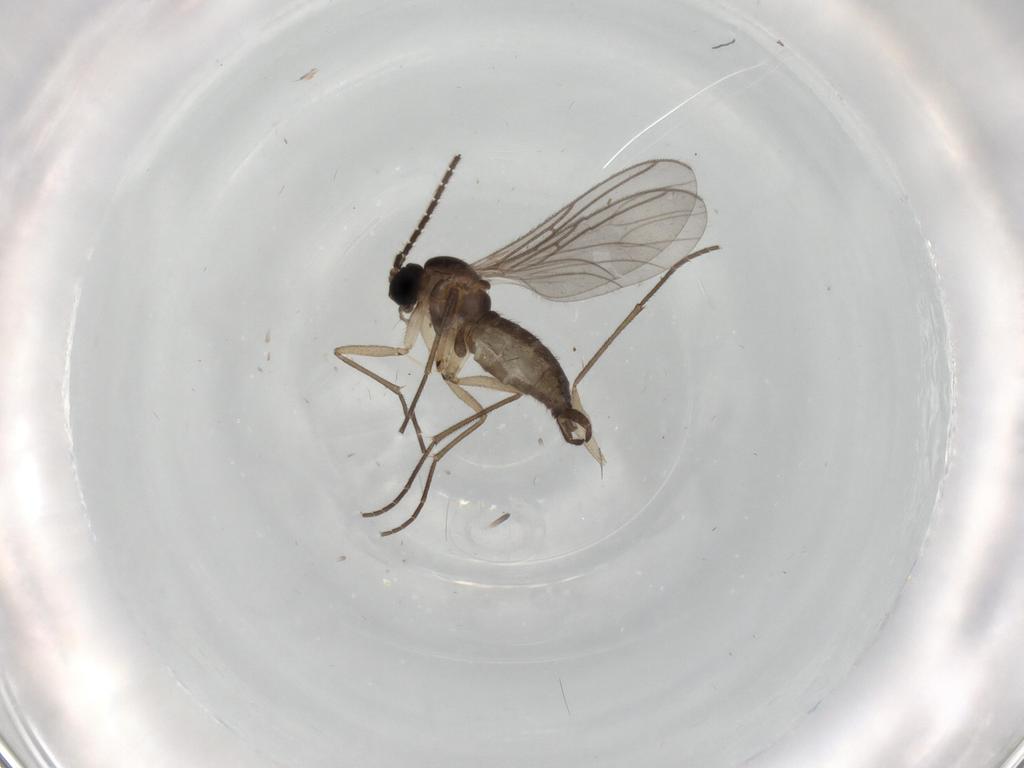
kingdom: Animalia
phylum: Arthropoda
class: Insecta
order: Diptera
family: Sciaridae
